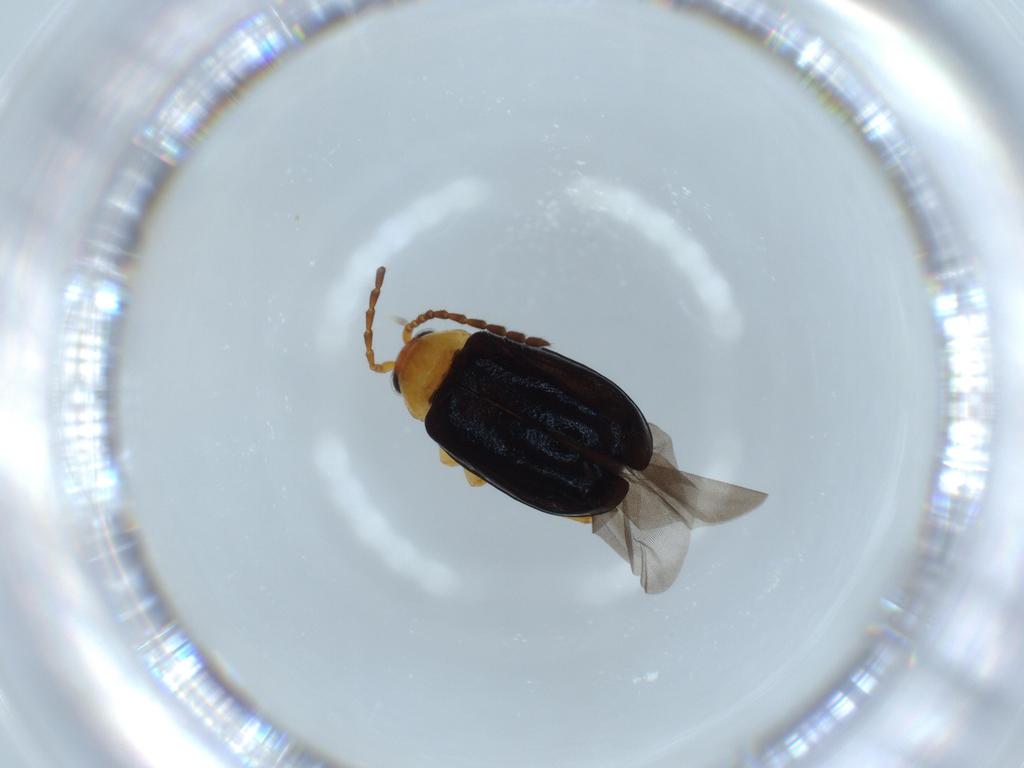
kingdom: Animalia
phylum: Arthropoda
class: Insecta
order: Coleoptera
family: Chrysomelidae
